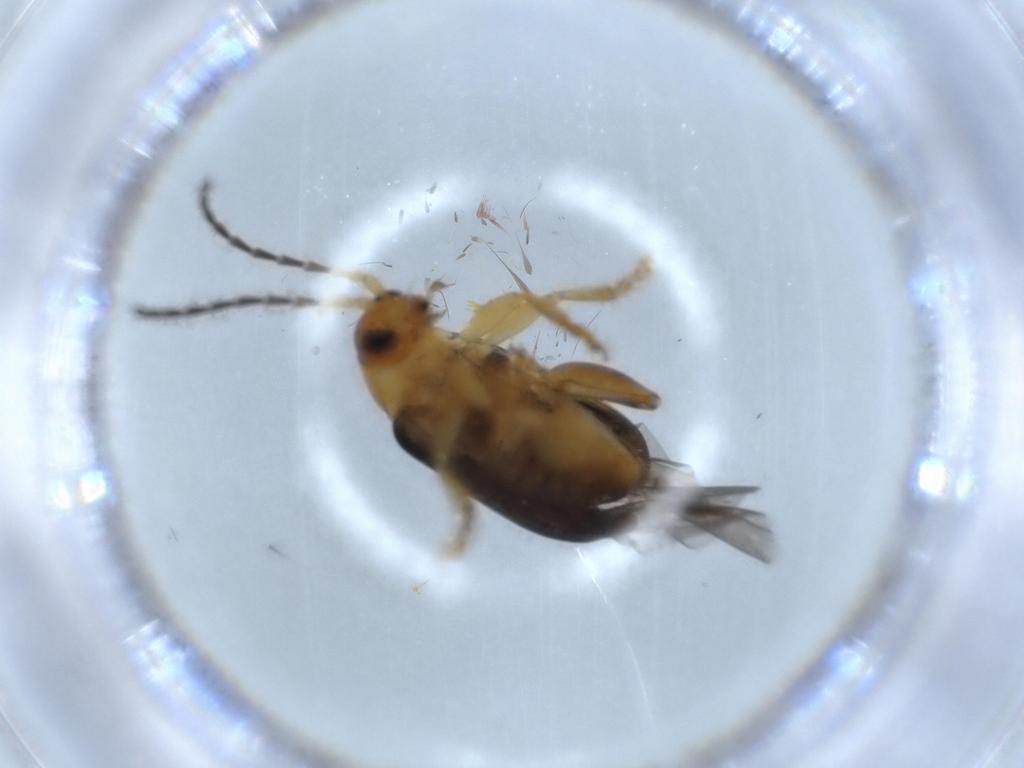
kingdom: Animalia
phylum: Arthropoda
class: Insecta
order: Coleoptera
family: Chrysomelidae
